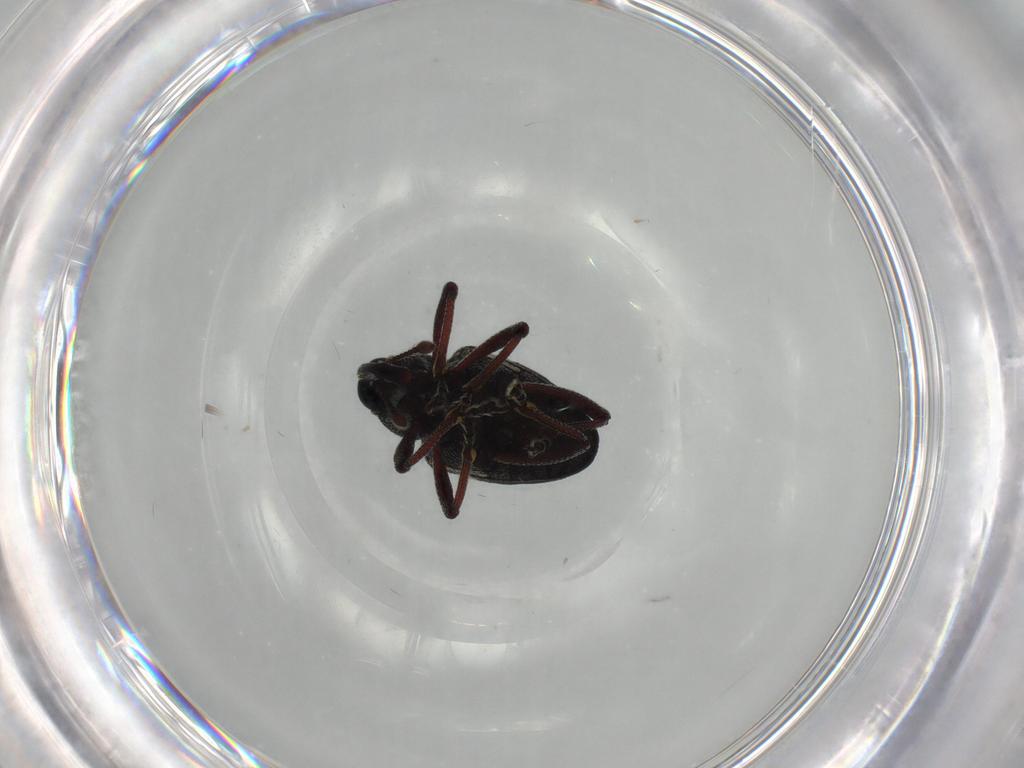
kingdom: Animalia
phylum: Arthropoda
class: Insecta
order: Coleoptera
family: Curculionidae
